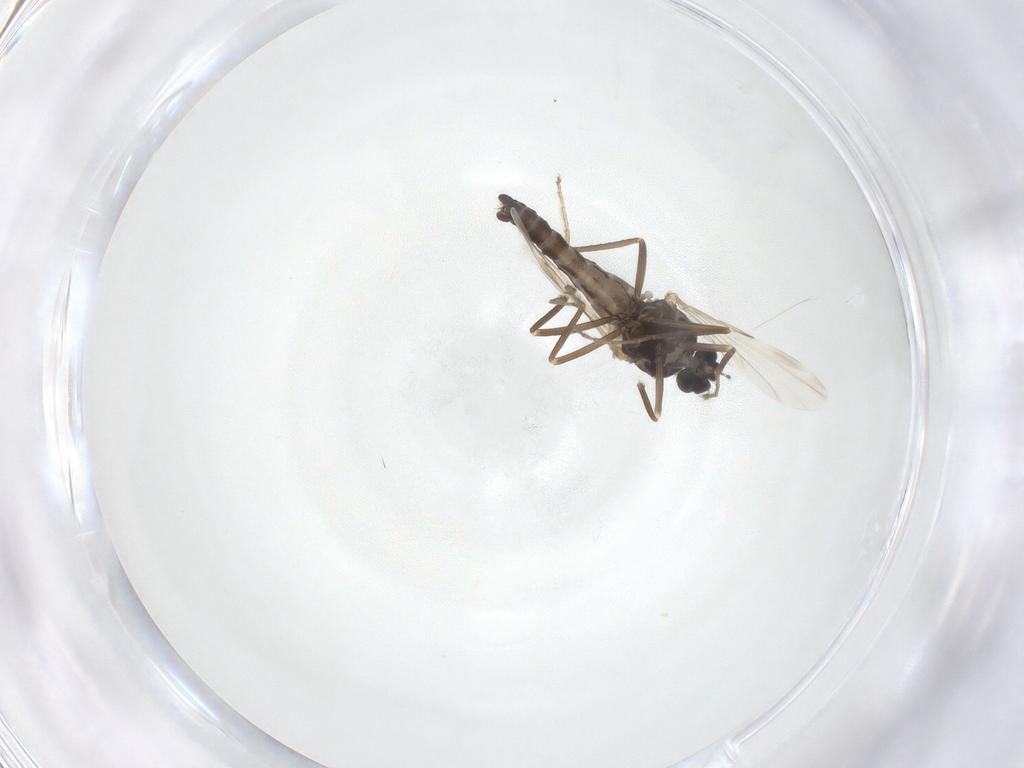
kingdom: Animalia
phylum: Arthropoda
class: Insecta
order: Diptera
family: Ceratopogonidae
